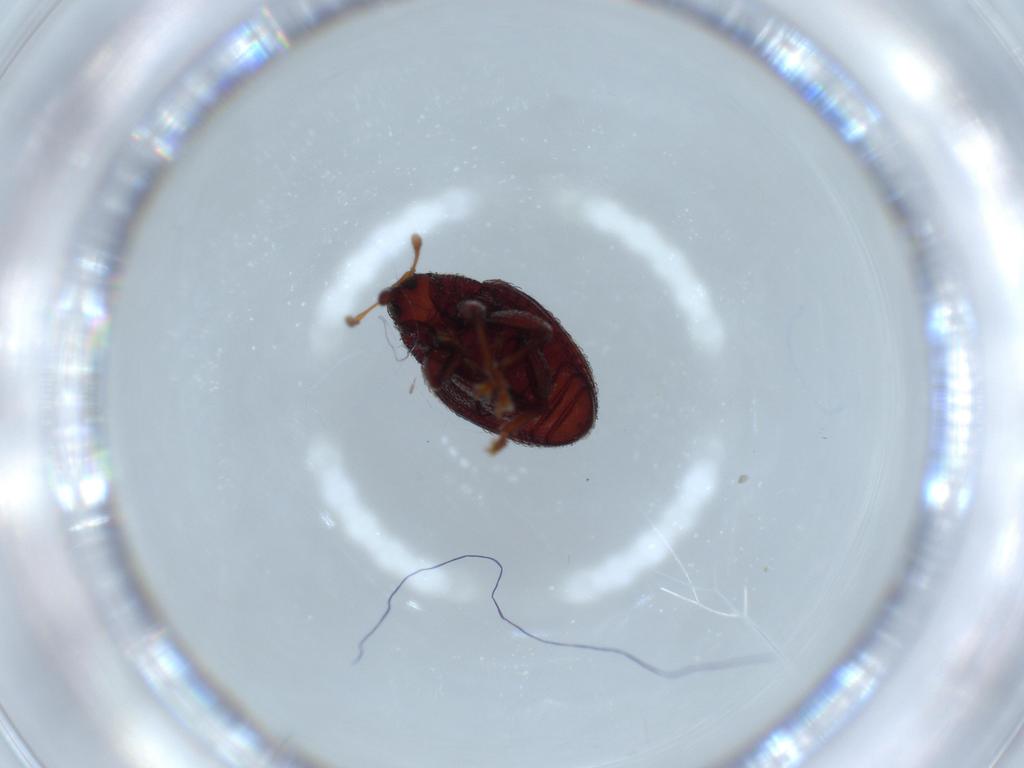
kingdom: Animalia
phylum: Arthropoda
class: Insecta
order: Coleoptera
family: Curculionidae
